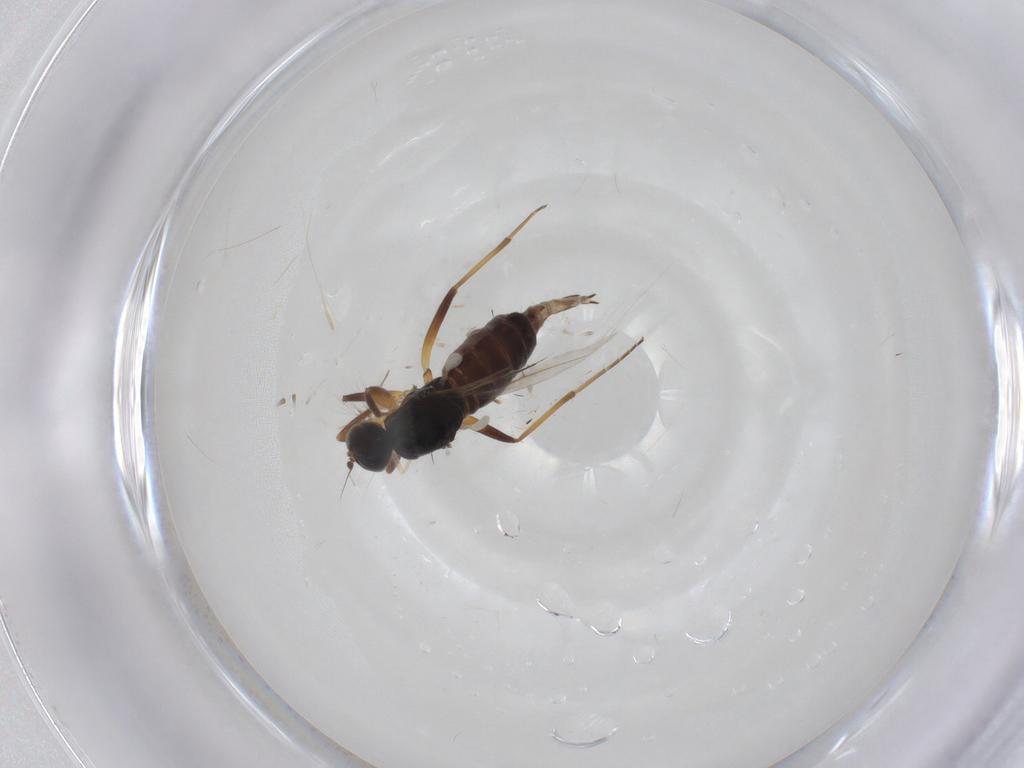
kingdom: Animalia
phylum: Arthropoda
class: Insecta
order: Diptera
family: Hybotidae
